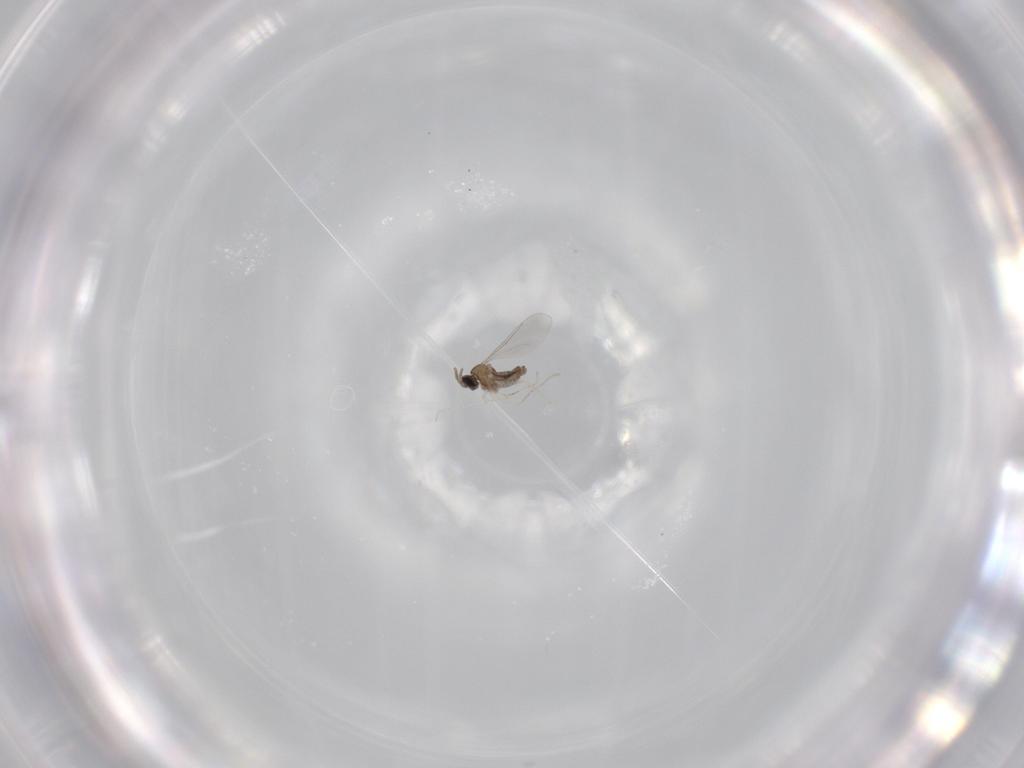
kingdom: Animalia
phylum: Arthropoda
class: Insecta
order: Diptera
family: Cecidomyiidae
